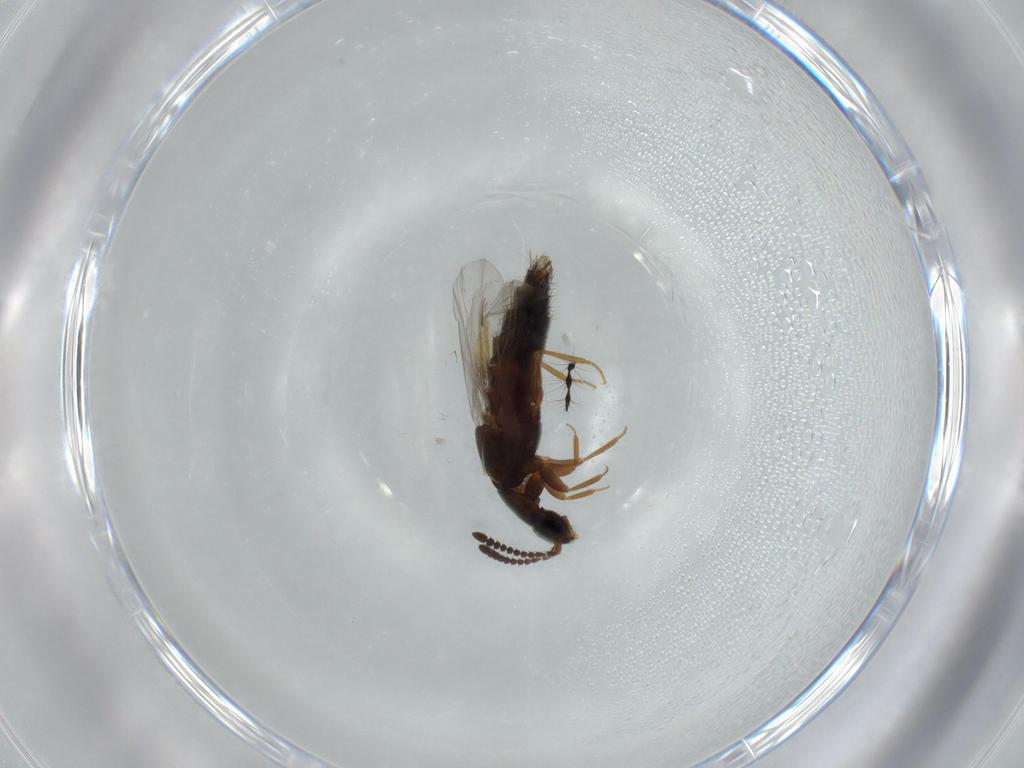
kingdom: Animalia
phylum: Arthropoda
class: Insecta
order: Coleoptera
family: Staphylinidae
